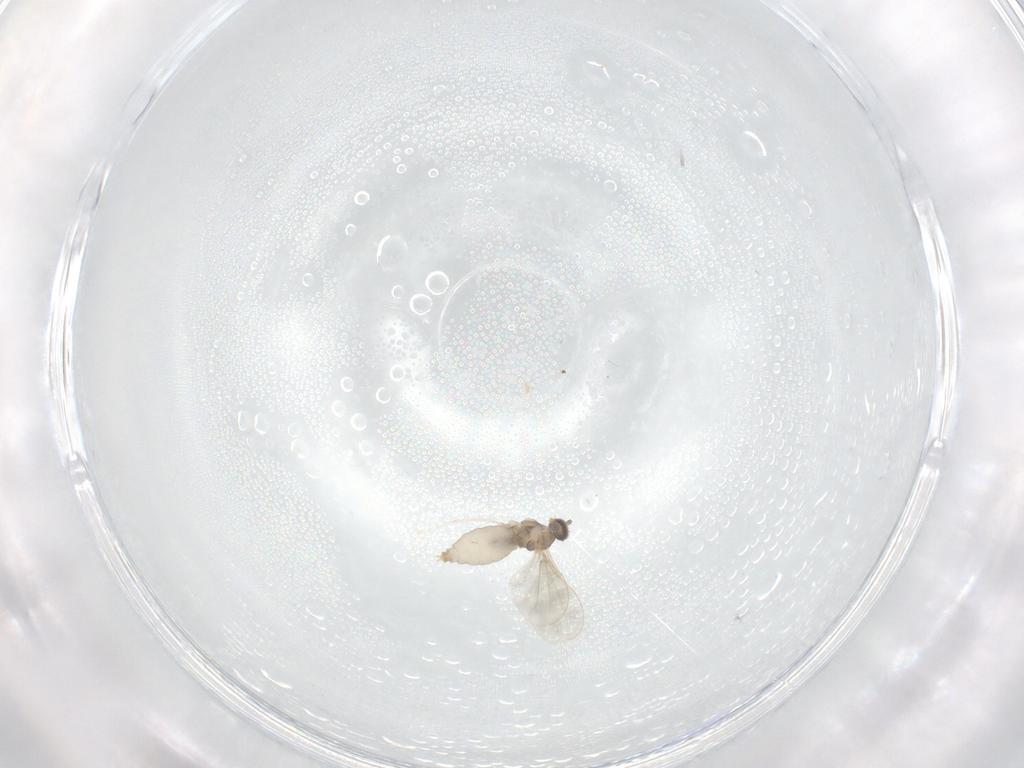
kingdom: Animalia
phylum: Arthropoda
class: Insecta
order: Diptera
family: Cecidomyiidae
